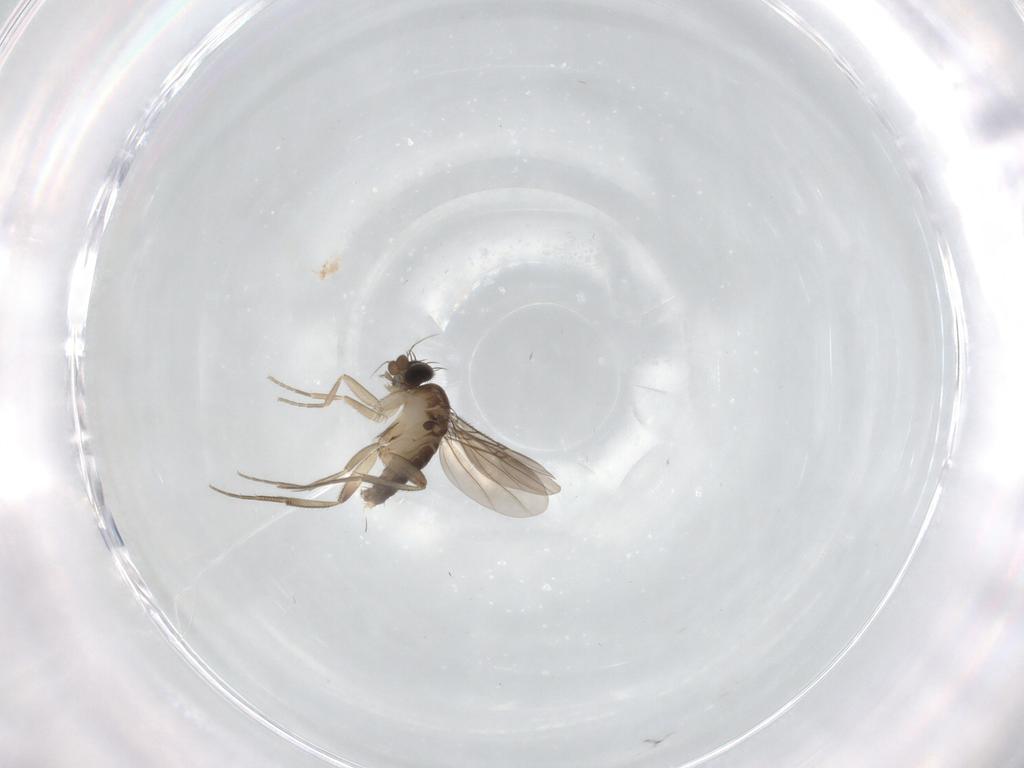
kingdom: Animalia
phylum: Arthropoda
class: Insecta
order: Diptera
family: Phoridae
